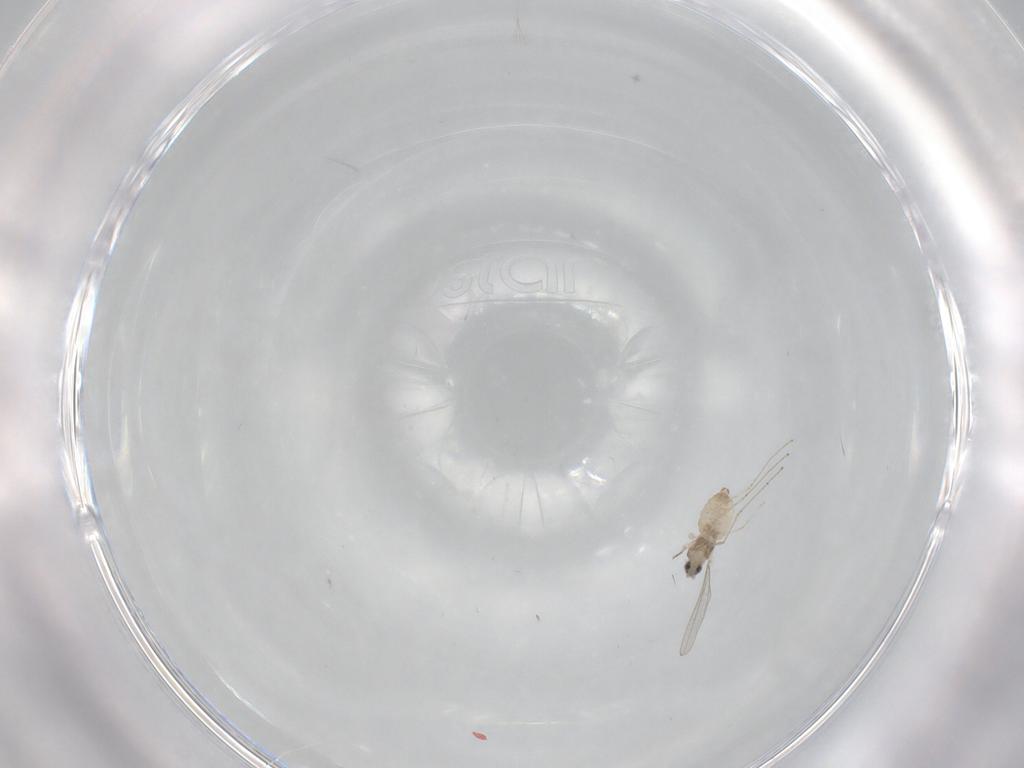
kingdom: Animalia
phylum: Arthropoda
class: Insecta
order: Diptera
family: Cecidomyiidae
